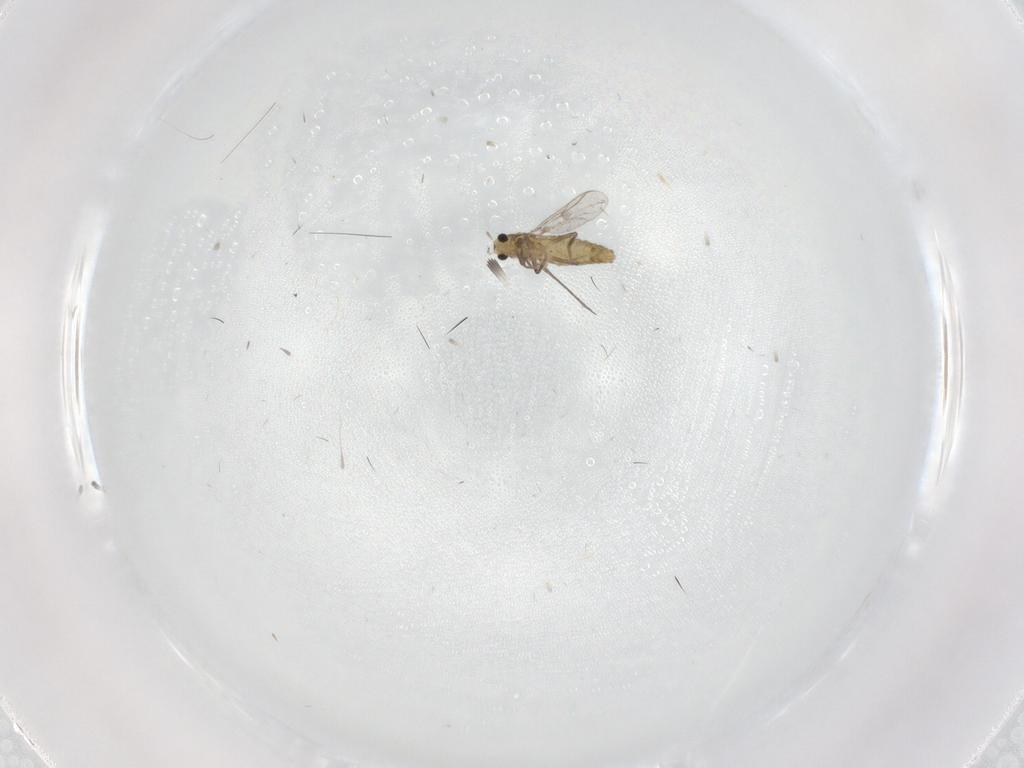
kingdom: Animalia
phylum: Arthropoda
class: Insecta
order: Diptera
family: Chironomidae
